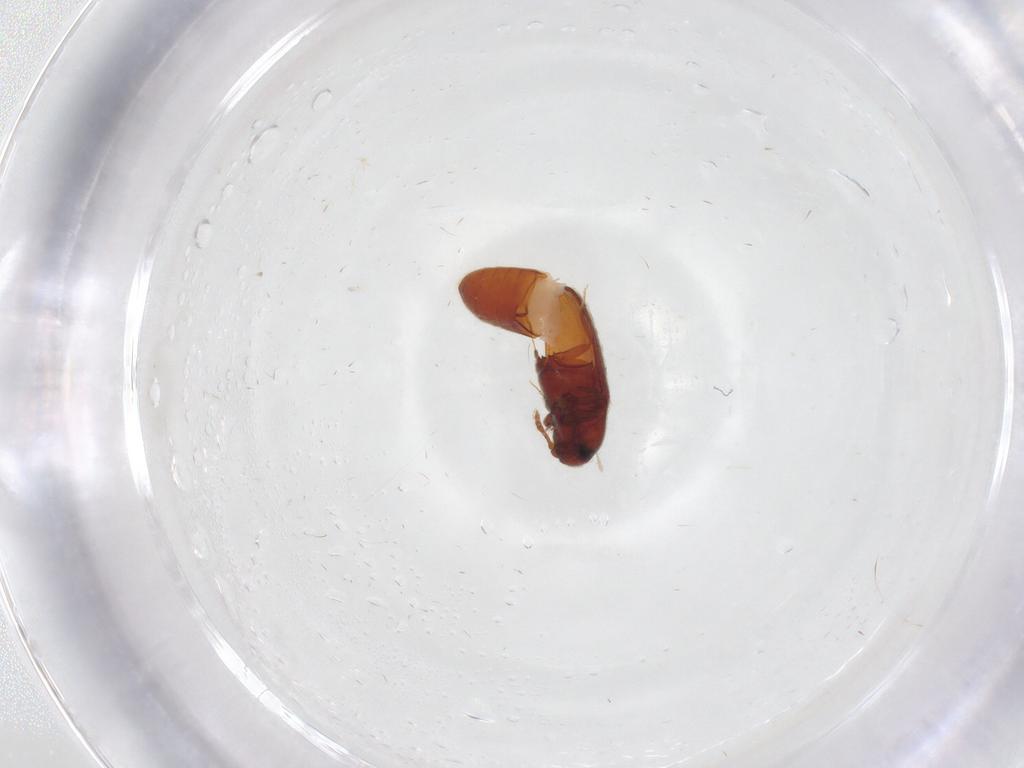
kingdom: Animalia
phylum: Arthropoda
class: Insecta
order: Coleoptera
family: Throscidae
